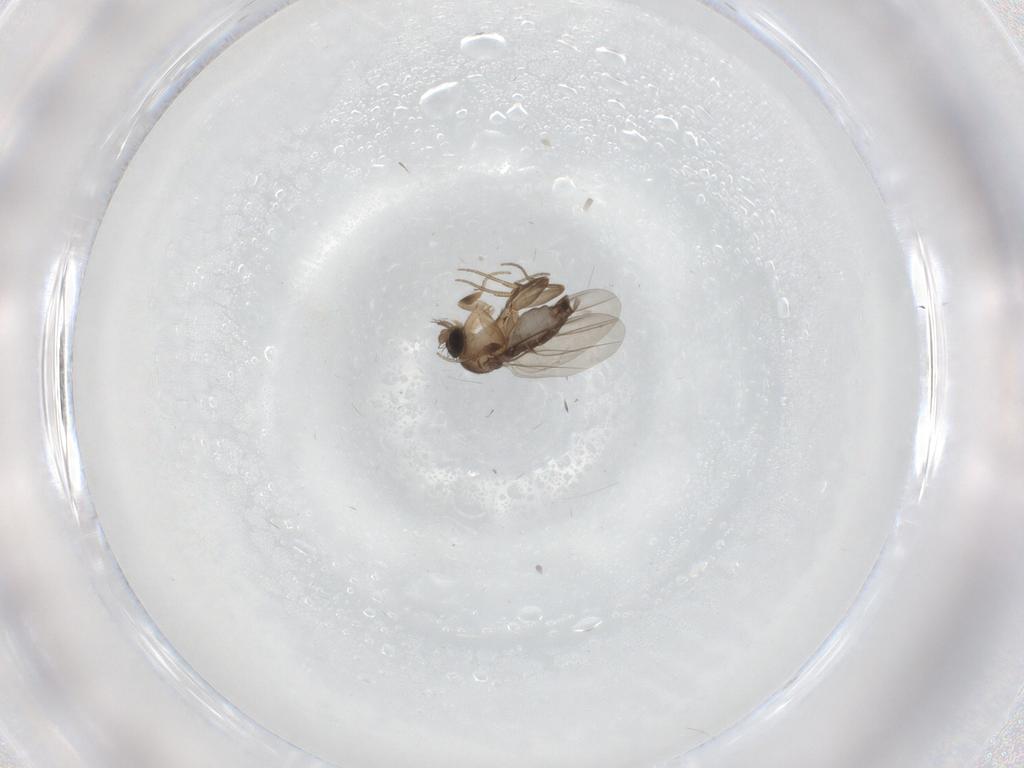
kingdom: Animalia
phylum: Arthropoda
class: Insecta
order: Diptera
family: Phoridae
